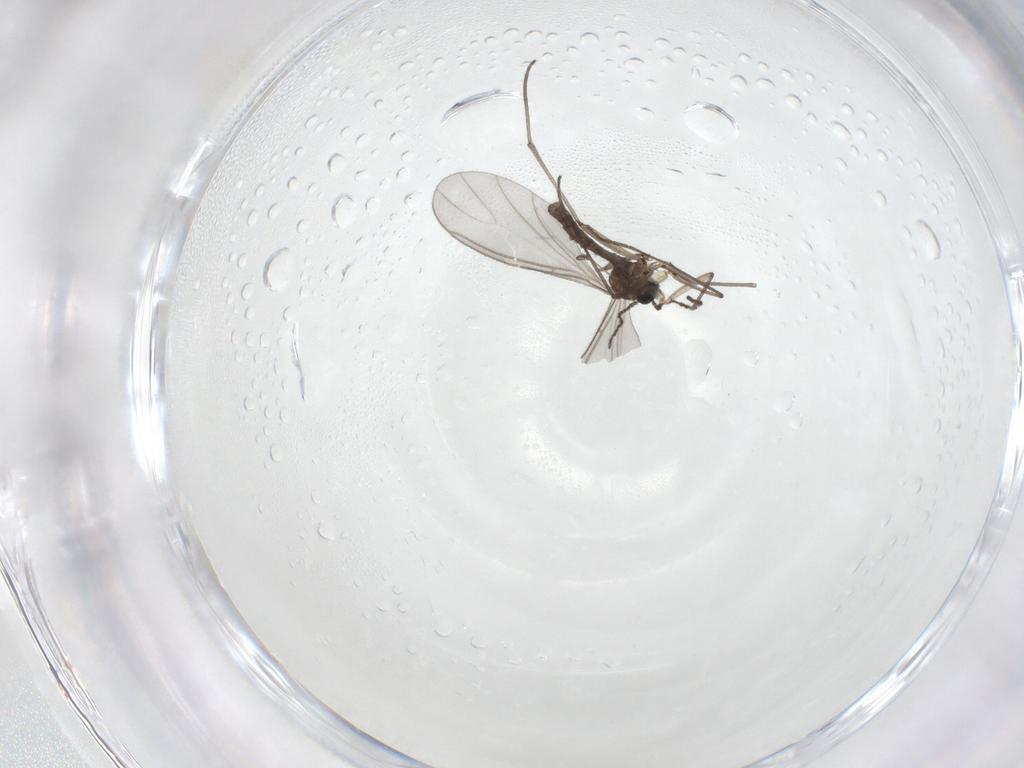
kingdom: Animalia
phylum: Arthropoda
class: Insecta
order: Diptera
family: Sciaridae
